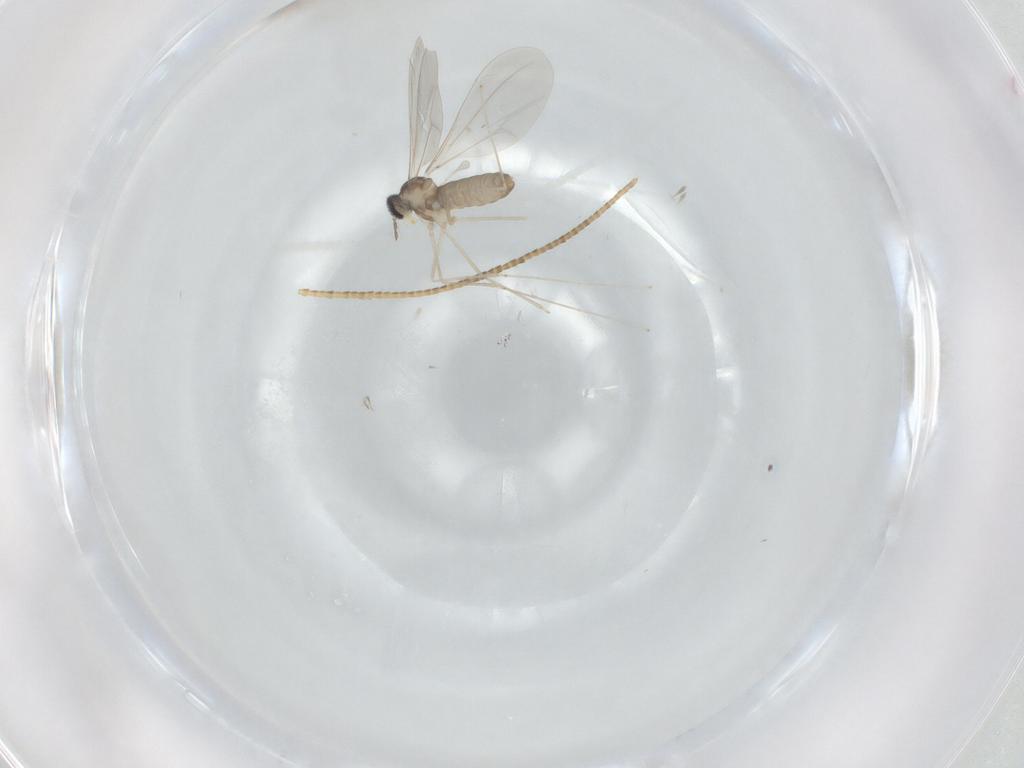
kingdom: Animalia
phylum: Arthropoda
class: Insecta
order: Diptera
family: Cecidomyiidae
